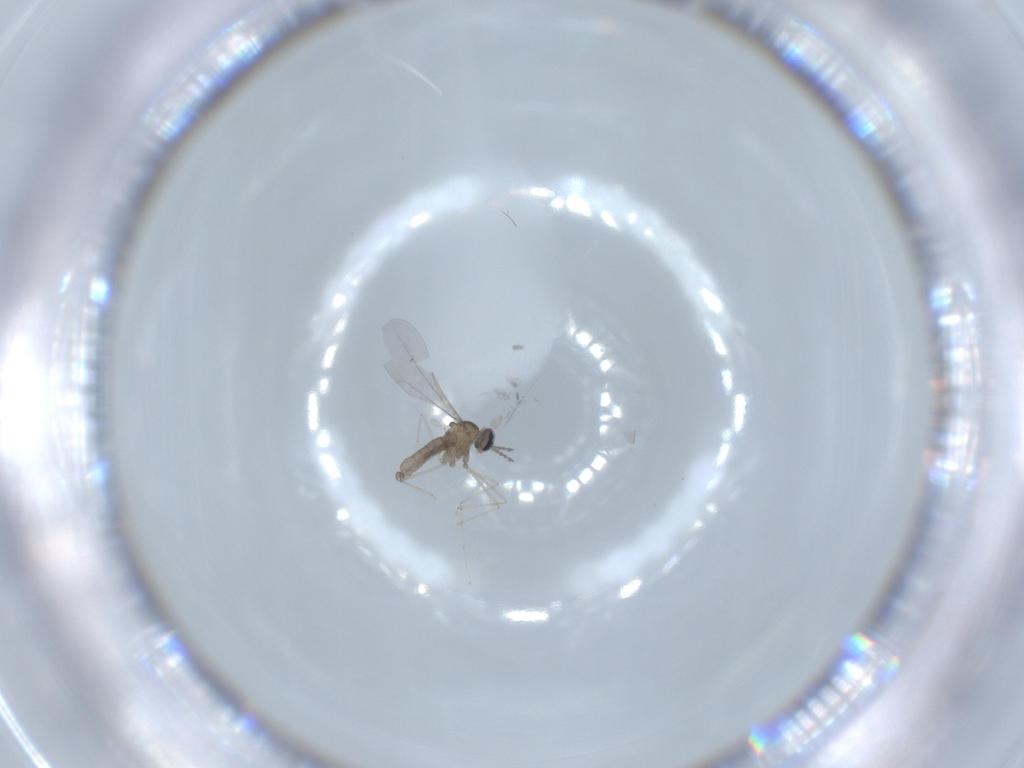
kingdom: Animalia
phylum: Arthropoda
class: Insecta
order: Diptera
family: Cecidomyiidae
